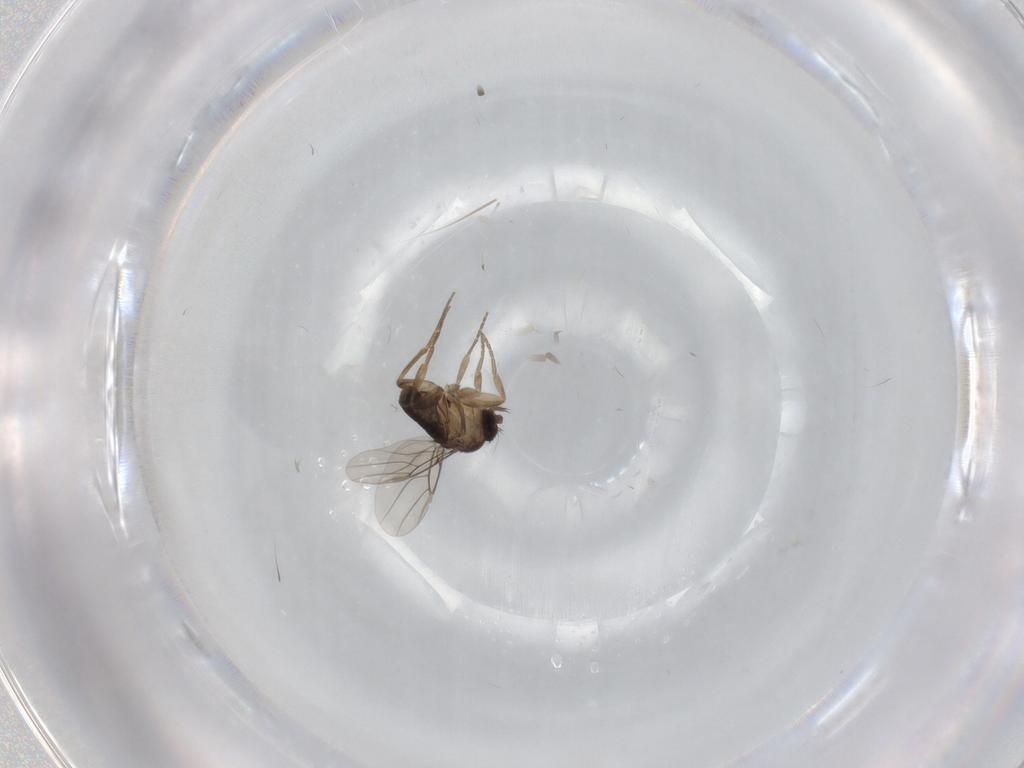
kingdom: Animalia
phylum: Arthropoda
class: Insecta
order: Diptera
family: Phoridae
